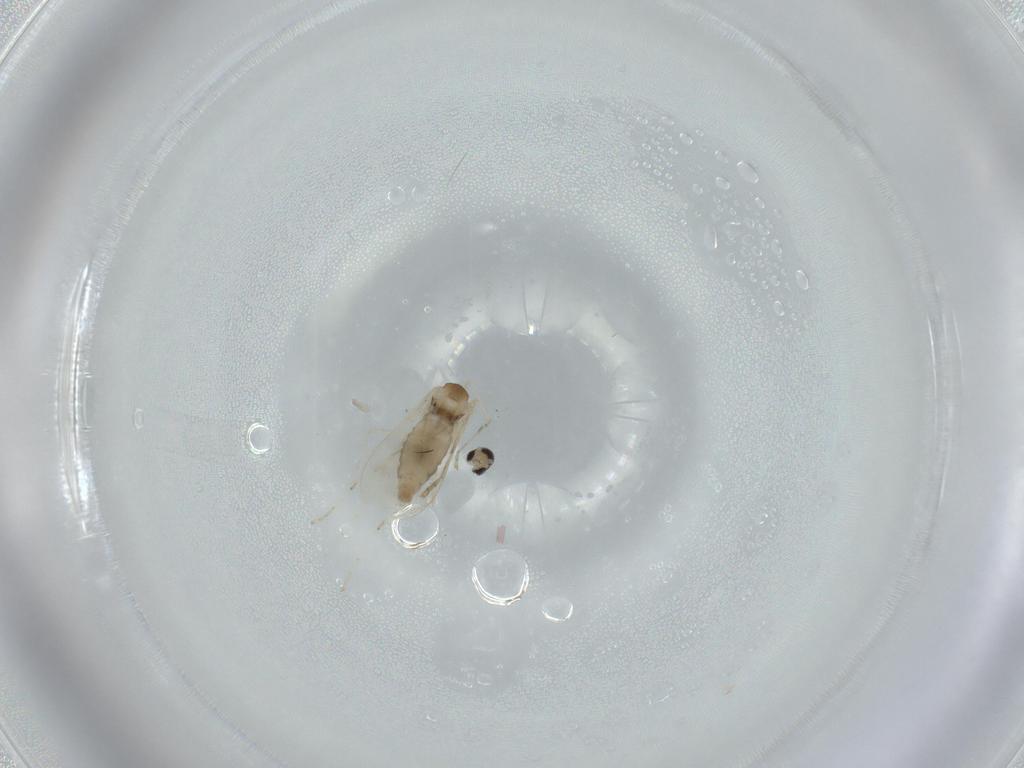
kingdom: Animalia
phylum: Arthropoda
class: Insecta
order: Diptera
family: Cecidomyiidae
